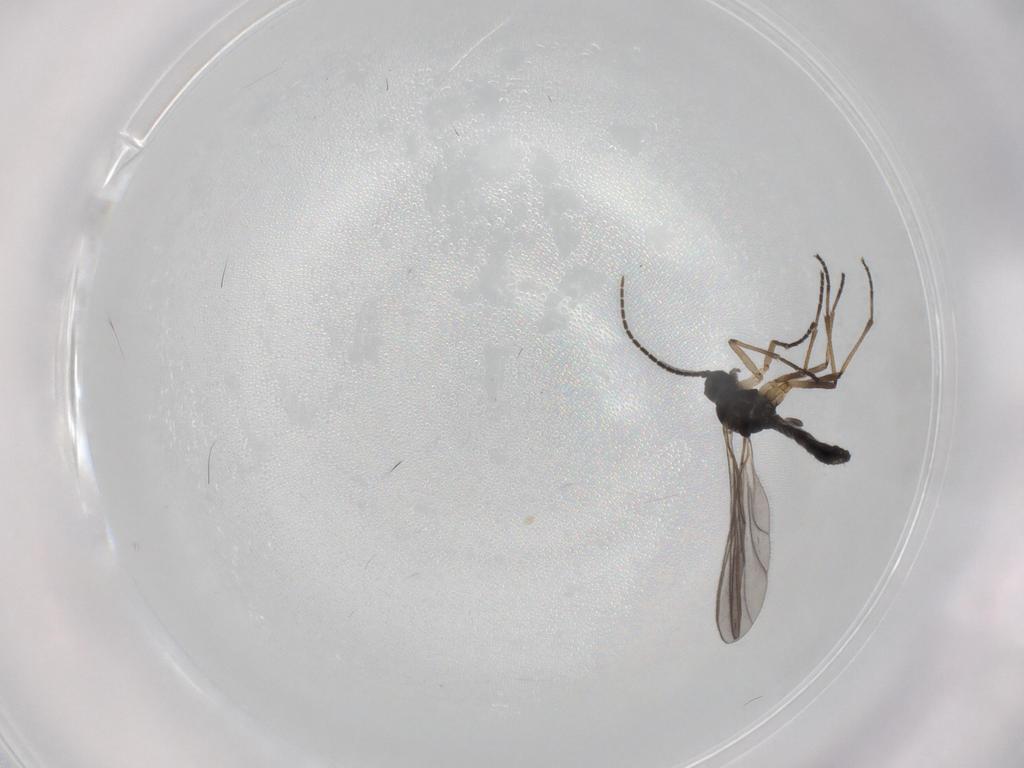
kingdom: Animalia
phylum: Arthropoda
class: Insecta
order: Diptera
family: Sciaridae
